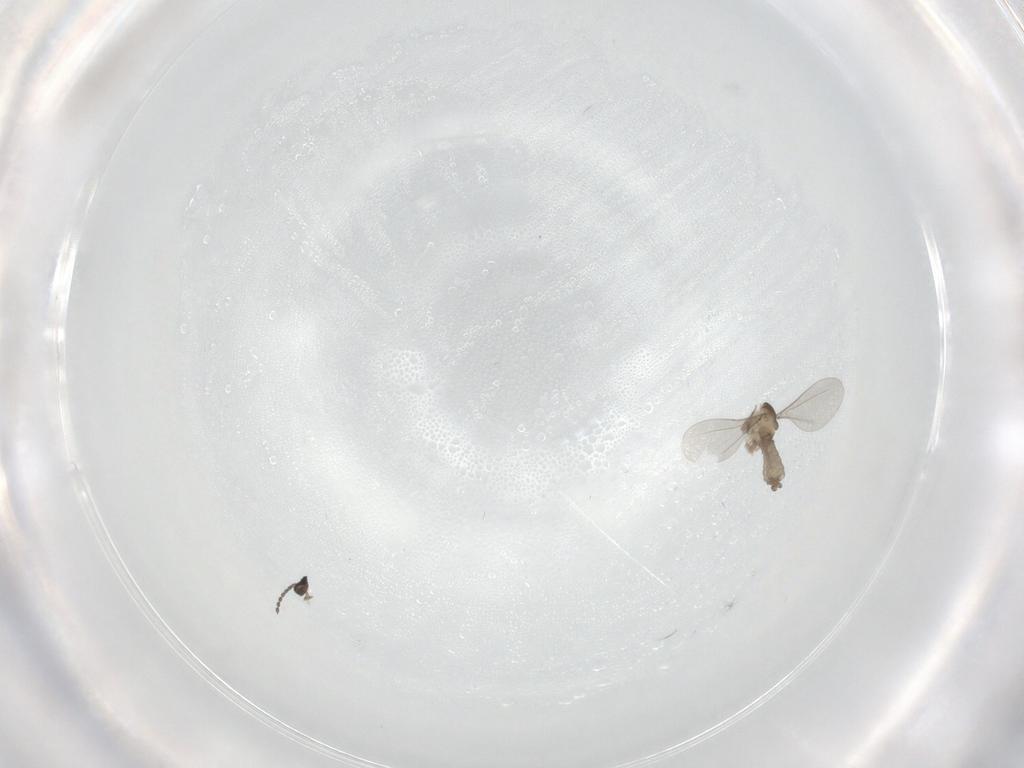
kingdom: Animalia
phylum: Arthropoda
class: Insecta
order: Diptera
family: Cecidomyiidae
